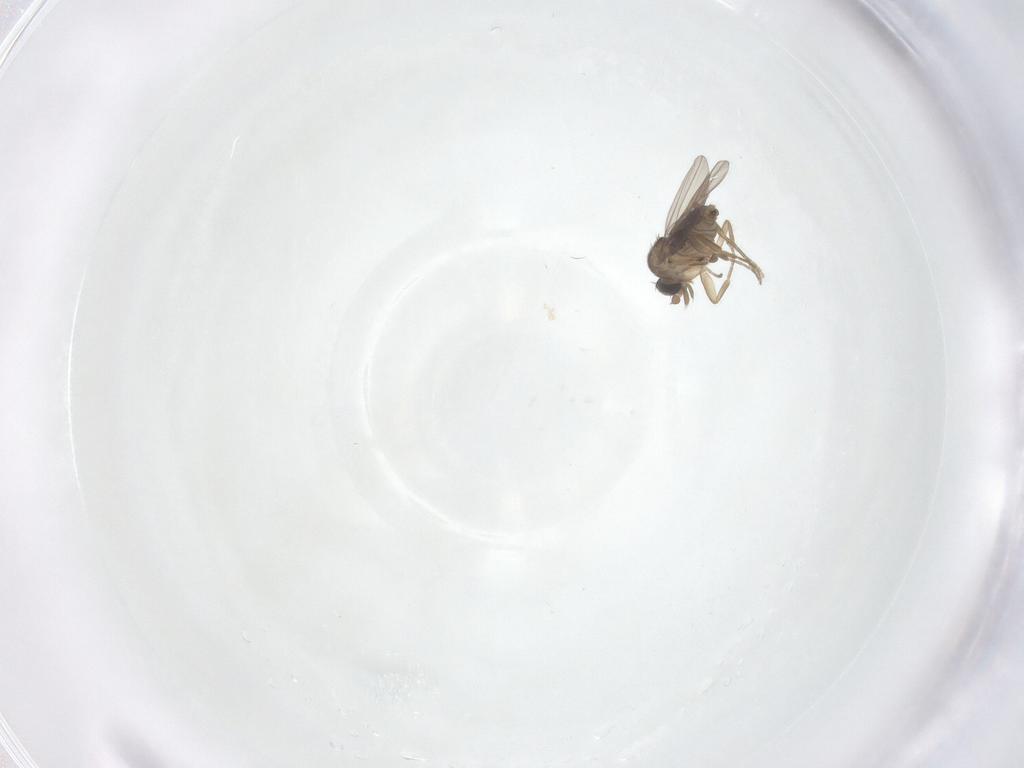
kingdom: Animalia
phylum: Arthropoda
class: Insecta
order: Diptera
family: Phoridae
